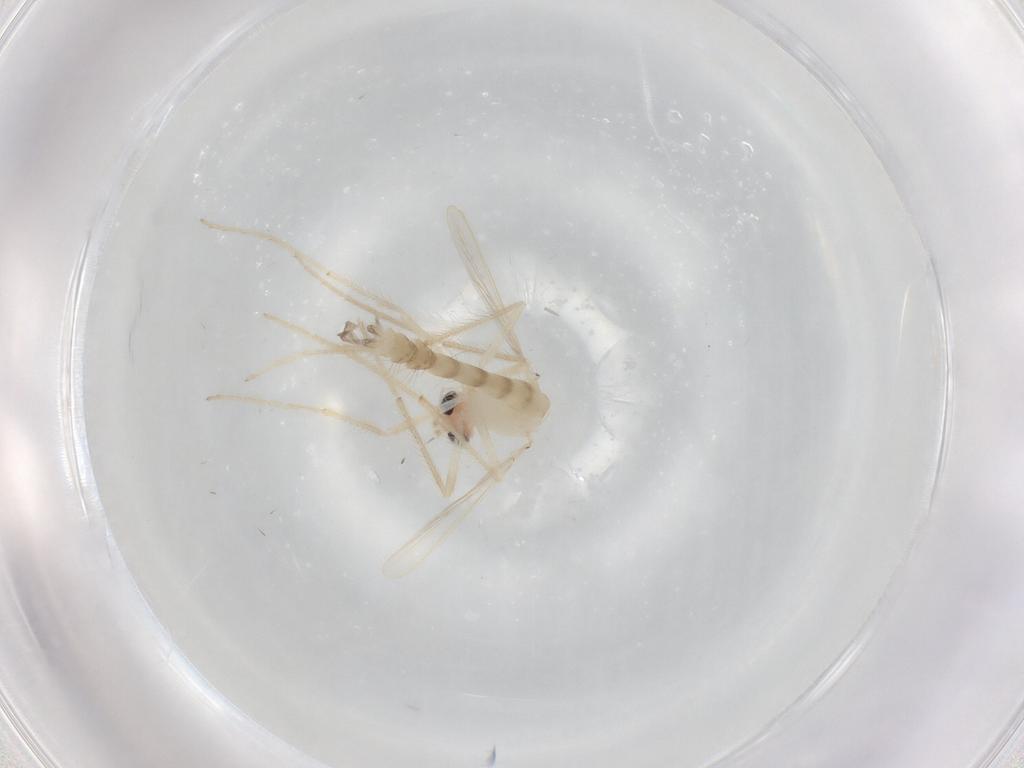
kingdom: Animalia
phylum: Arthropoda
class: Insecta
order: Diptera
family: Chironomidae
